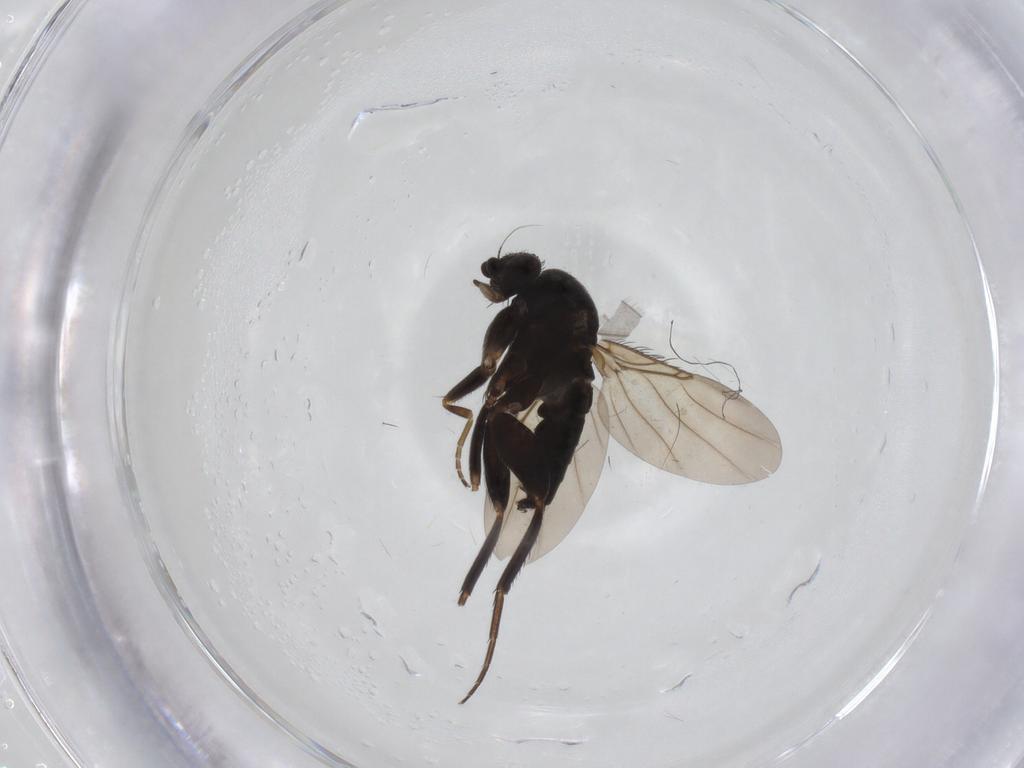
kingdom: Animalia
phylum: Arthropoda
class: Insecta
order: Diptera
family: Phoridae
